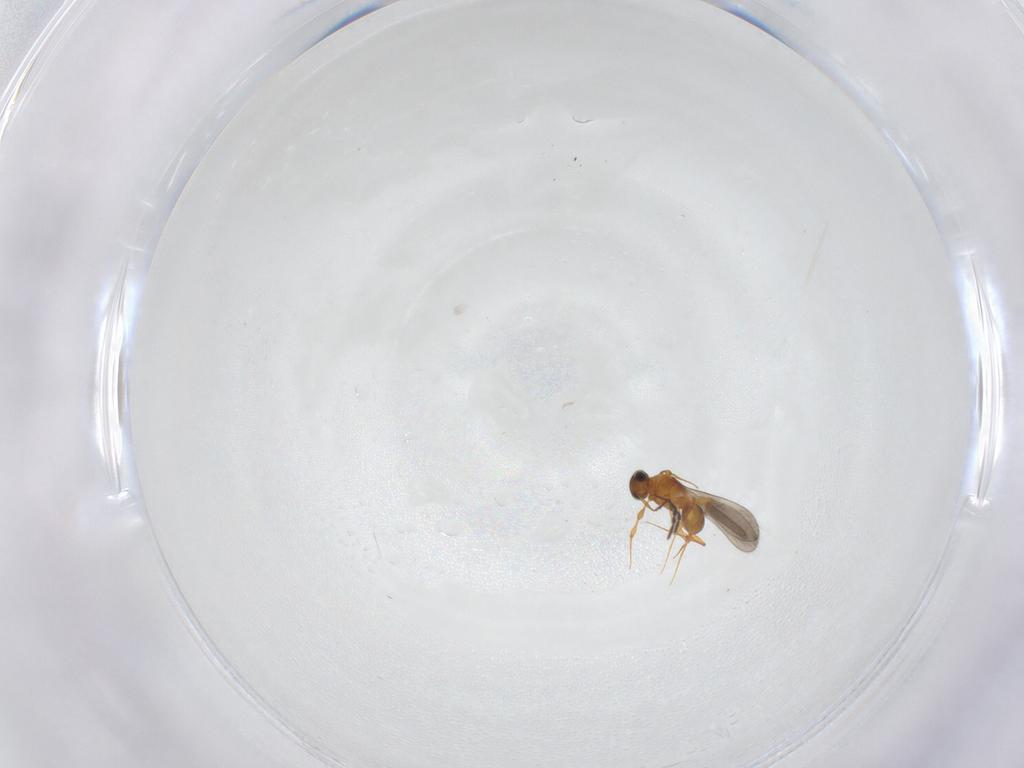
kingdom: Animalia
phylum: Arthropoda
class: Insecta
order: Hymenoptera
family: Platygastridae
